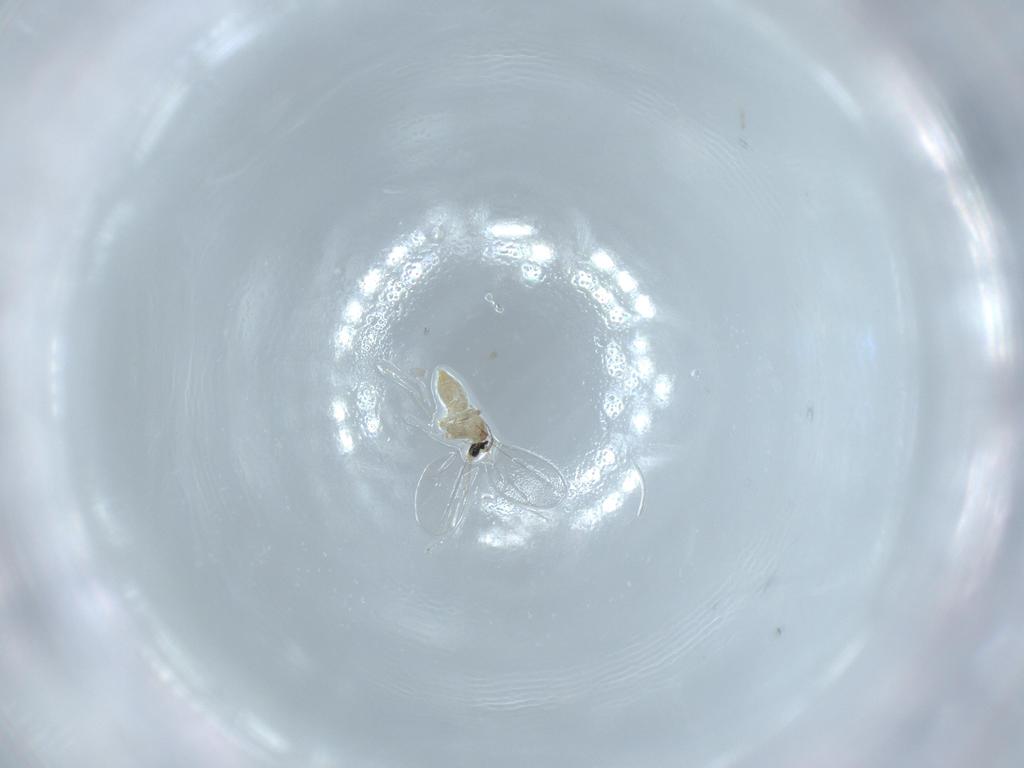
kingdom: Animalia
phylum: Arthropoda
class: Insecta
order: Diptera
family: Cecidomyiidae
